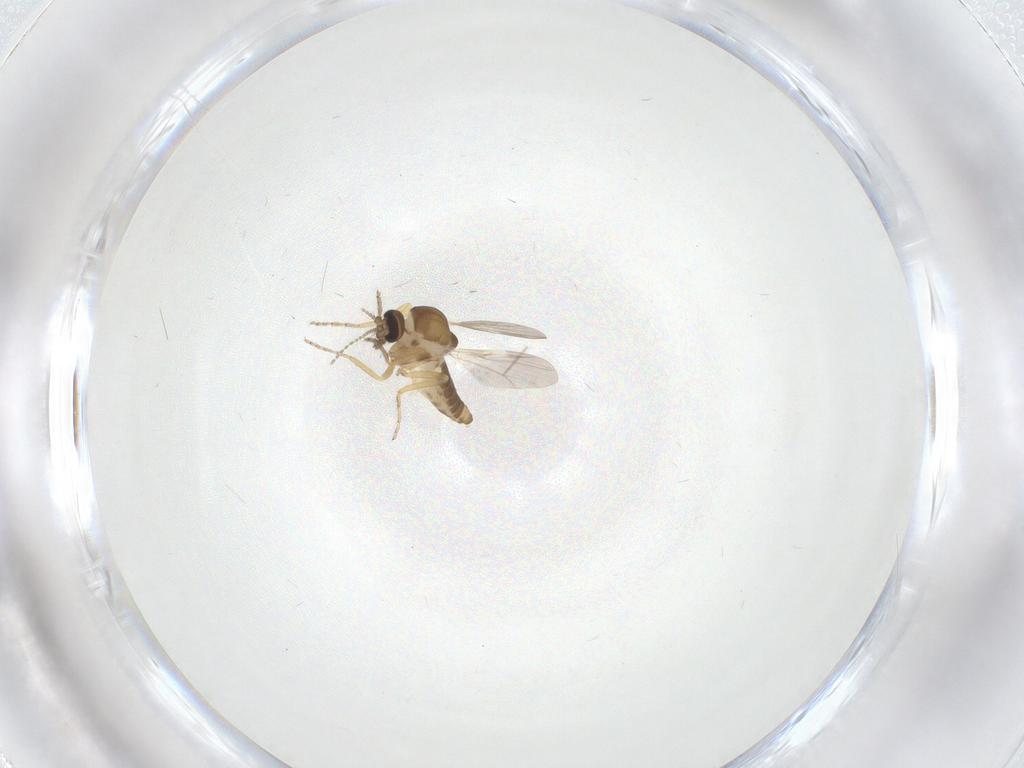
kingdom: Animalia
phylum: Arthropoda
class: Insecta
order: Diptera
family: Ceratopogonidae
